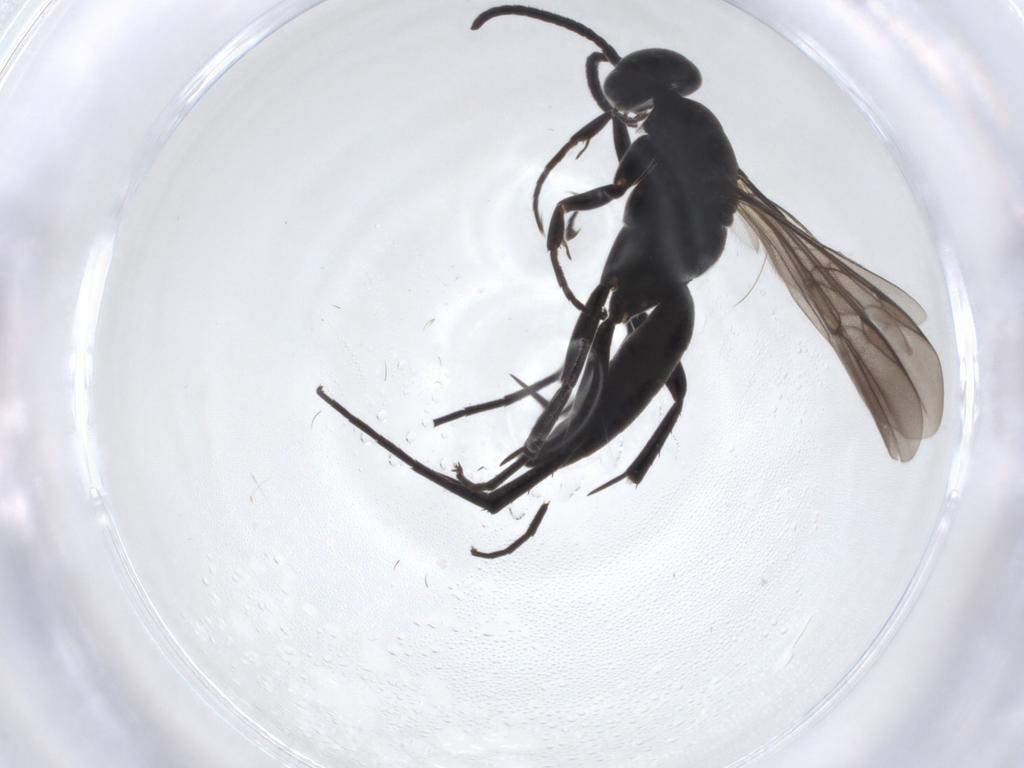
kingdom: Animalia
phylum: Arthropoda
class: Insecta
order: Hymenoptera
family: Pompilidae
